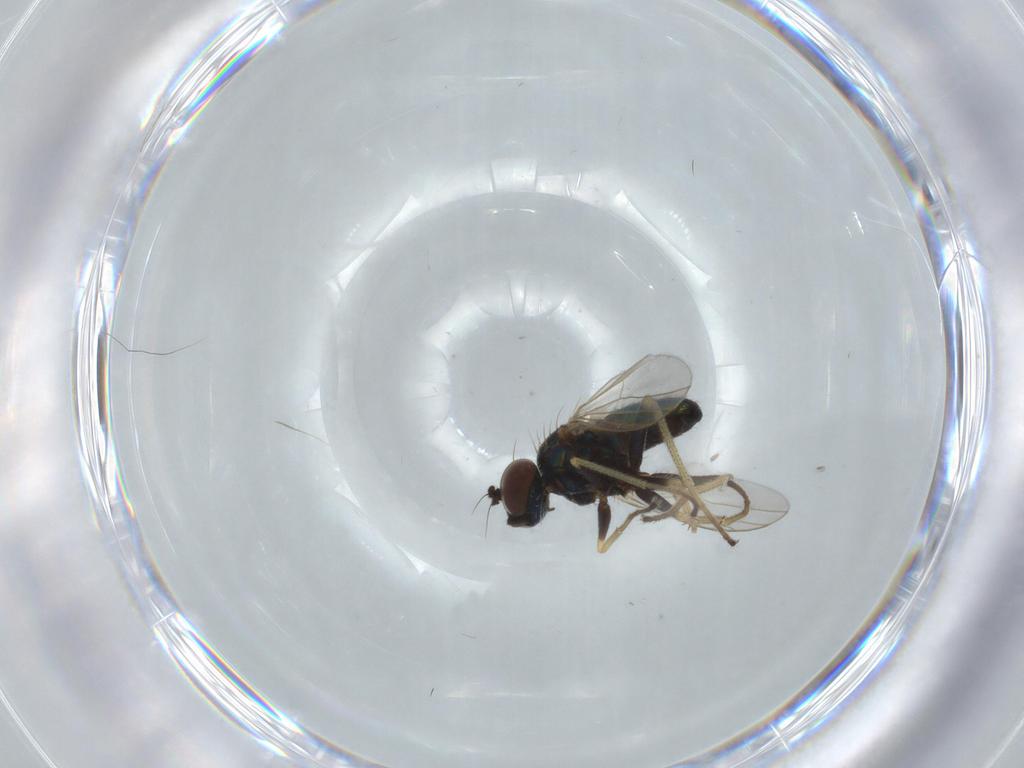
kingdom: Animalia
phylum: Arthropoda
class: Insecta
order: Diptera
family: Dolichopodidae
